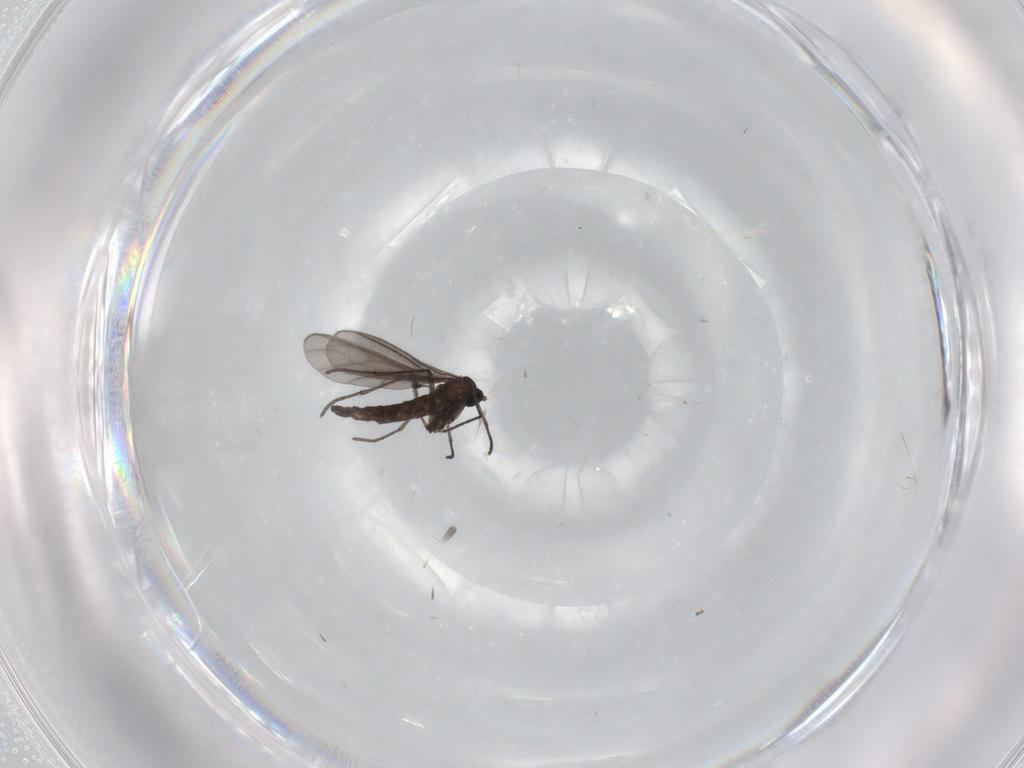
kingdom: Animalia
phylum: Arthropoda
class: Insecta
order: Diptera
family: Sciaridae
